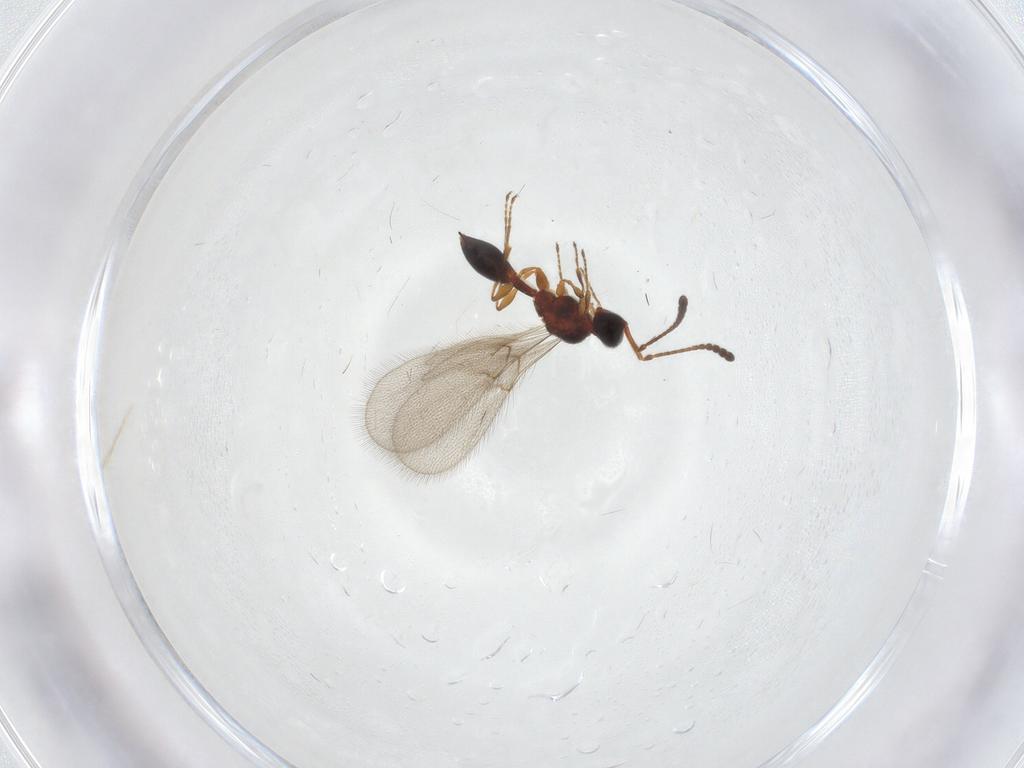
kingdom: Animalia
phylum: Arthropoda
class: Insecta
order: Hymenoptera
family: Diapriidae
